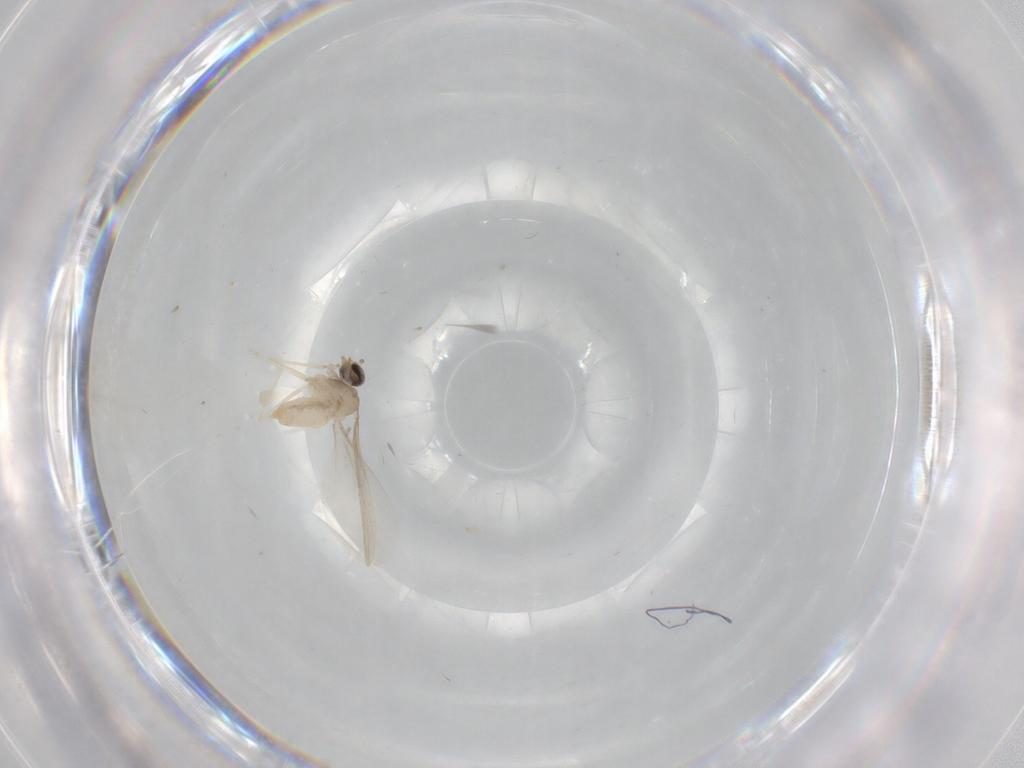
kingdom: Animalia
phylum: Arthropoda
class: Insecta
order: Diptera
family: Cecidomyiidae
